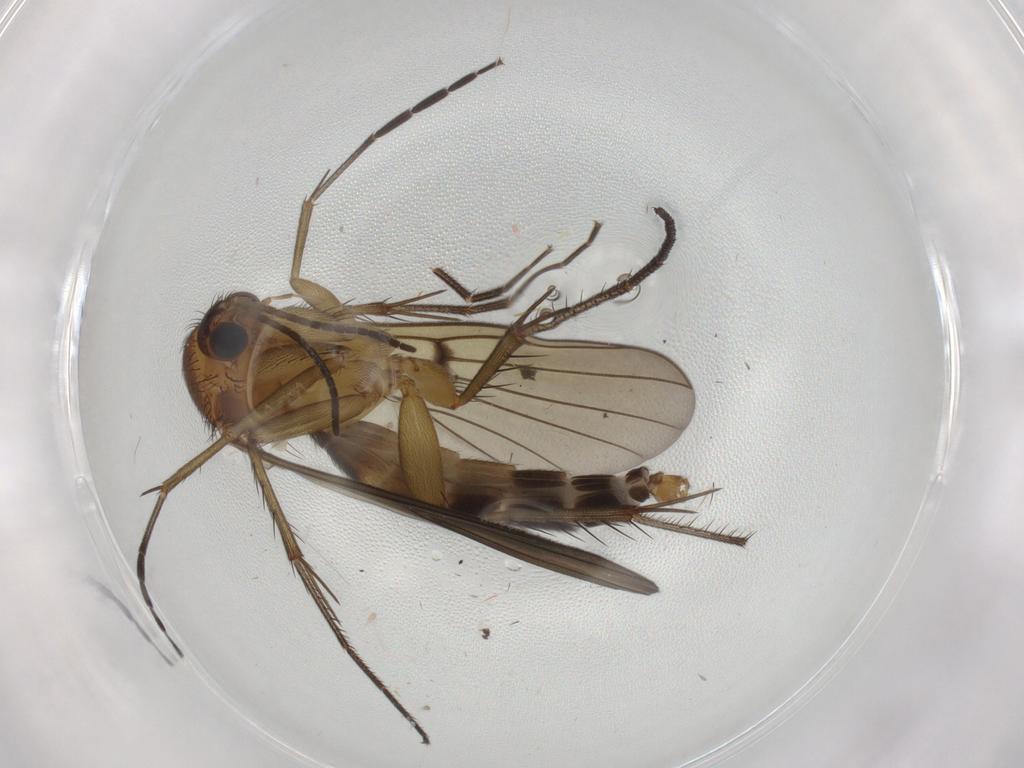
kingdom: Animalia
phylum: Arthropoda
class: Insecta
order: Diptera
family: Mycetophilidae
